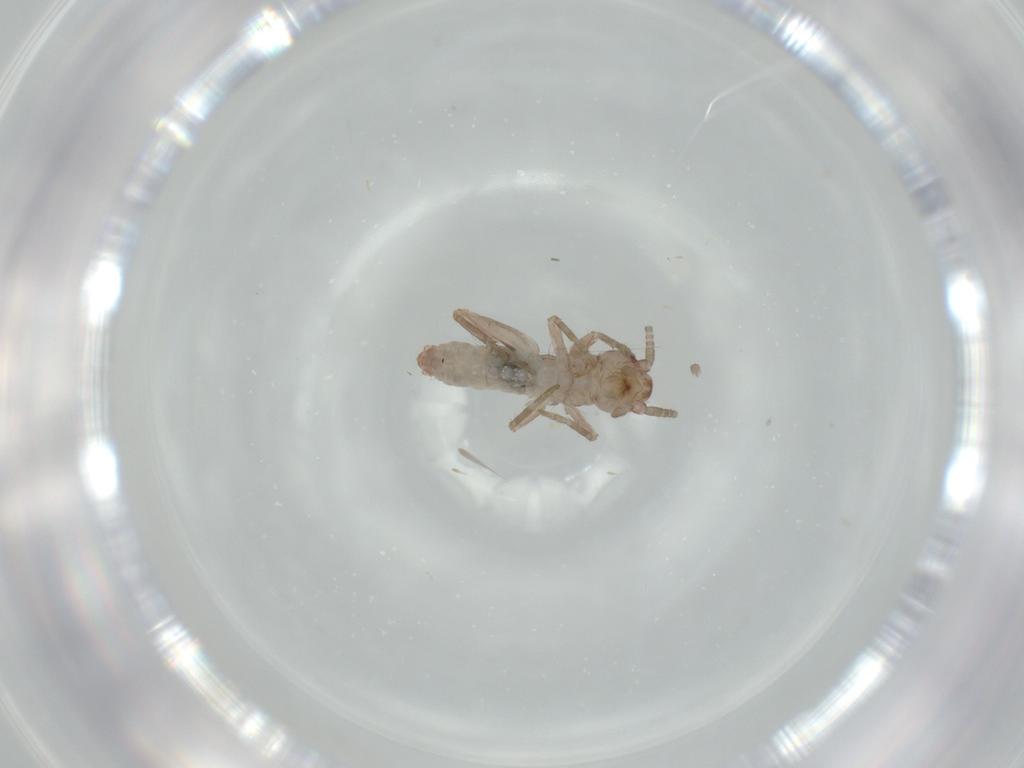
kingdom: Animalia
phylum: Arthropoda
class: Insecta
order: Orthoptera
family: Mogoplistidae
